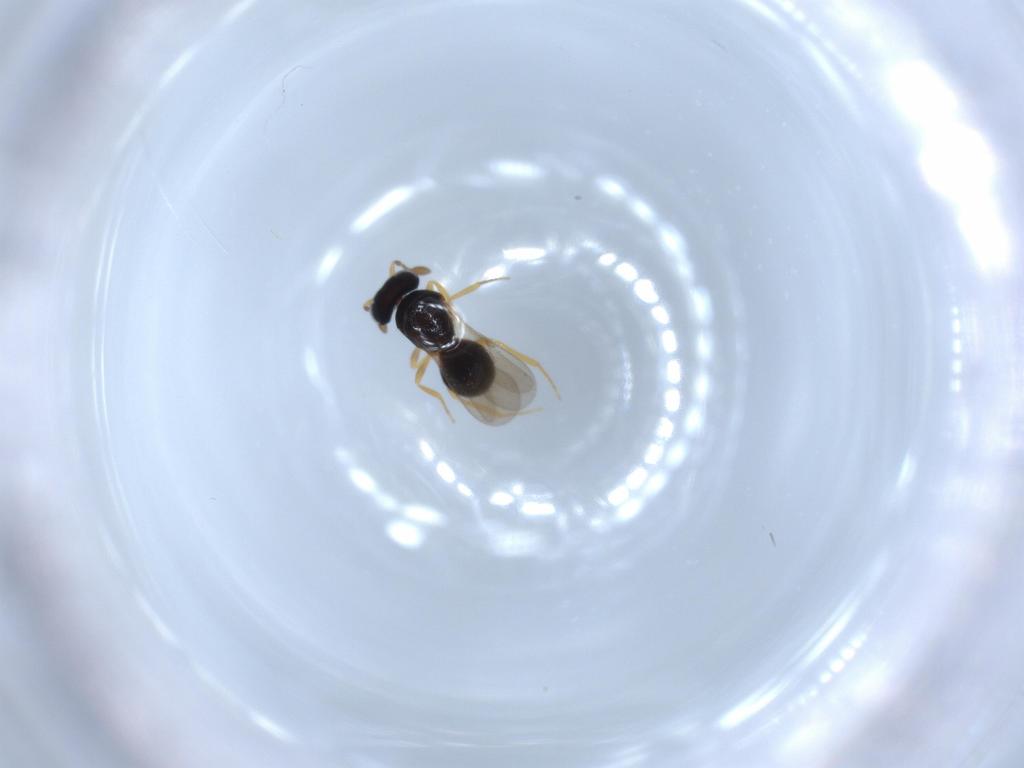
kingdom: Animalia
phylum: Arthropoda
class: Insecta
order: Hymenoptera
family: Scelionidae
